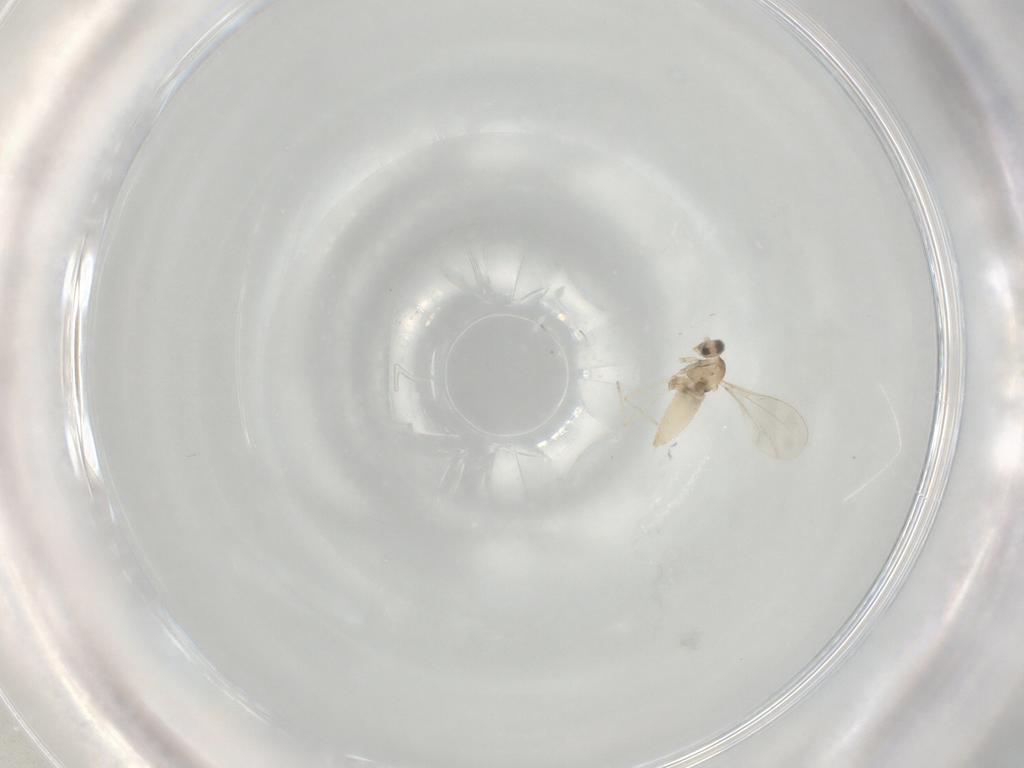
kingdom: Animalia
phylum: Arthropoda
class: Insecta
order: Diptera
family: Cecidomyiidae
